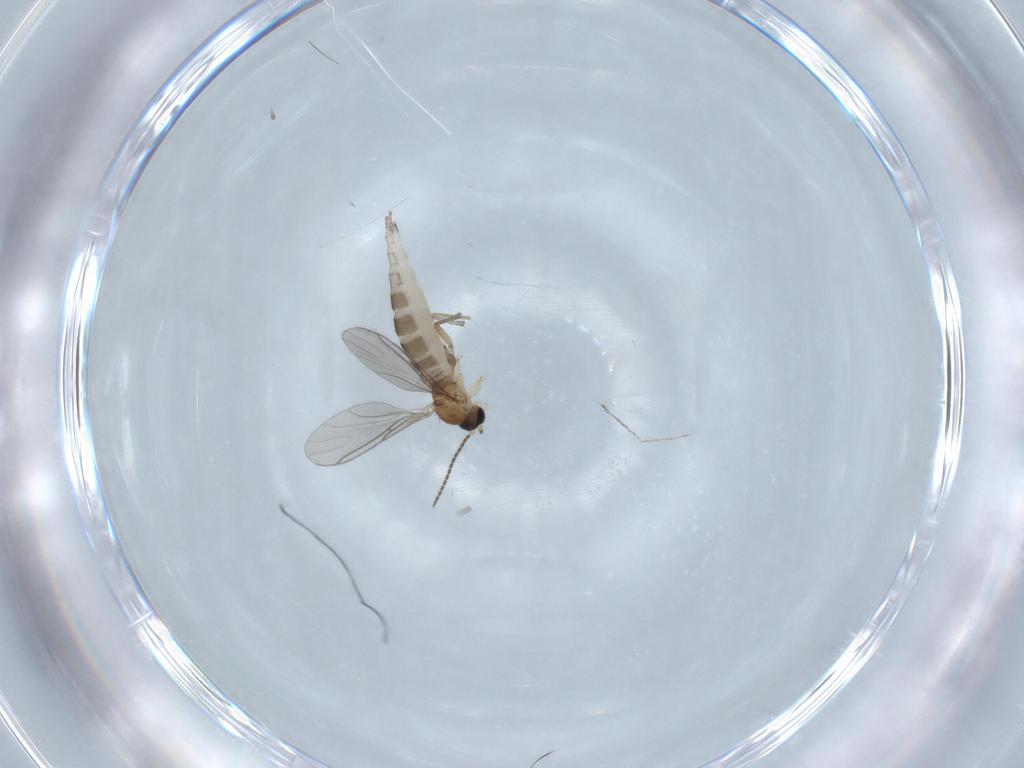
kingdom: Animalia
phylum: Arthropoda
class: Insecta
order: Diptera
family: Sciaridae
